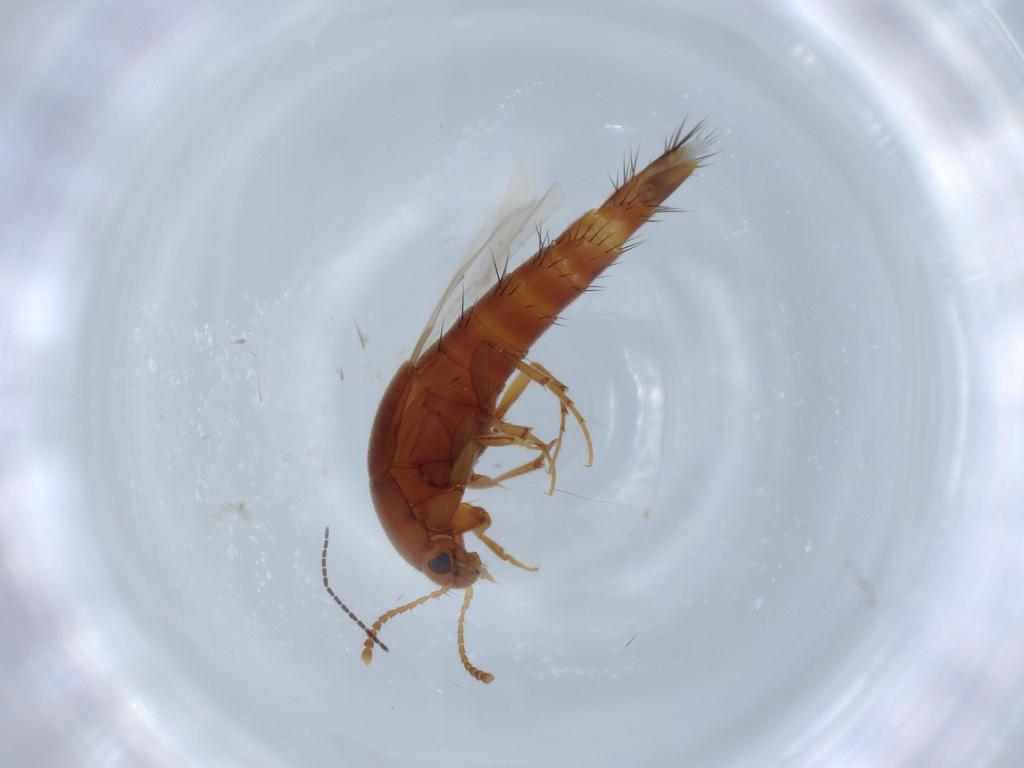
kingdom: Animalia
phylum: Arthropoda
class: Insecta
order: Coleoptera
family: Staphylinidae
